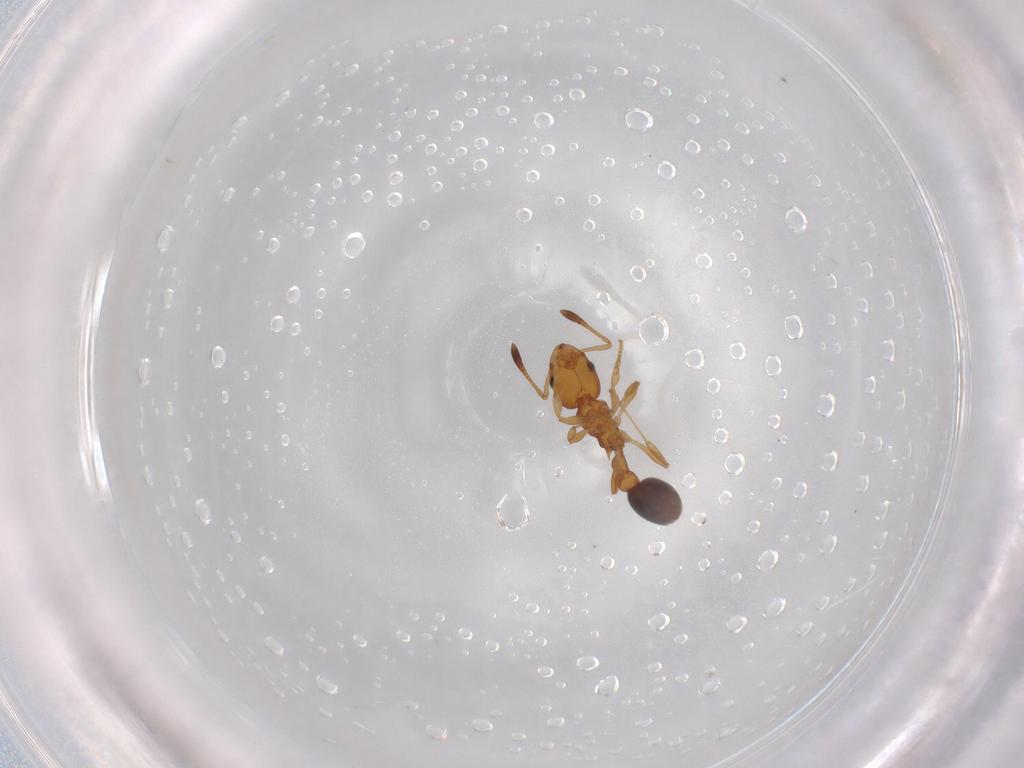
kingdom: Animalia
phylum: Arthropoda
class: Insecta
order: Hymenoptera
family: Formicidae
